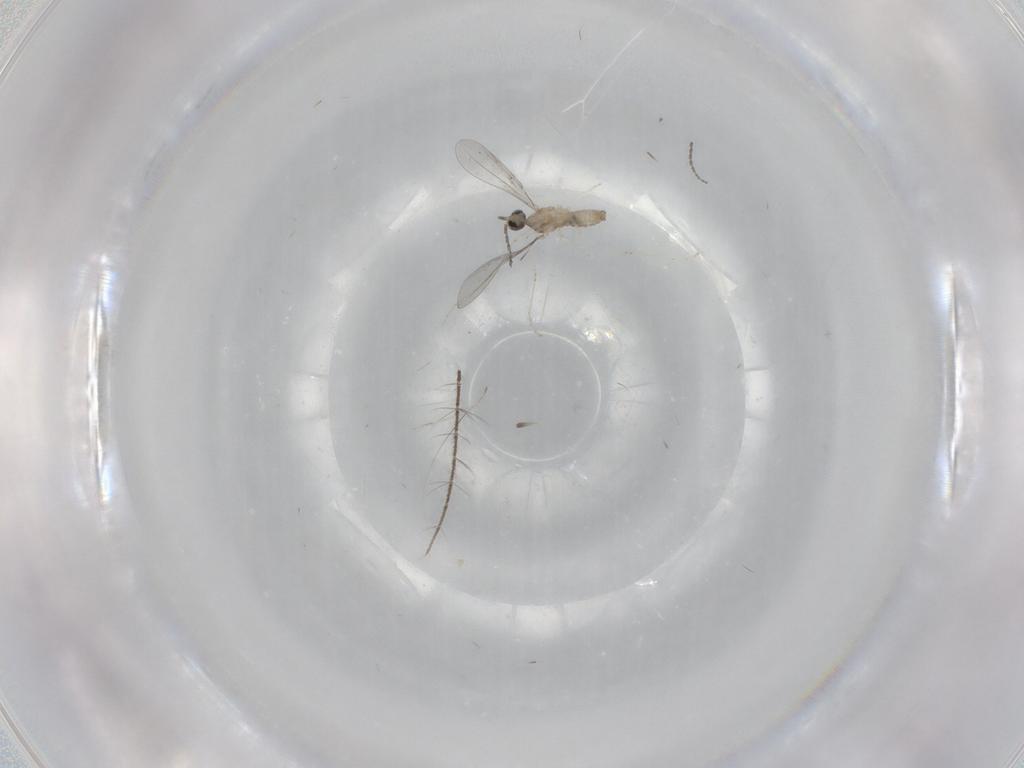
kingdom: Animalia
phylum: Arthropoda
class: Insecta
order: Diptera
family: Cecidomyiidae
